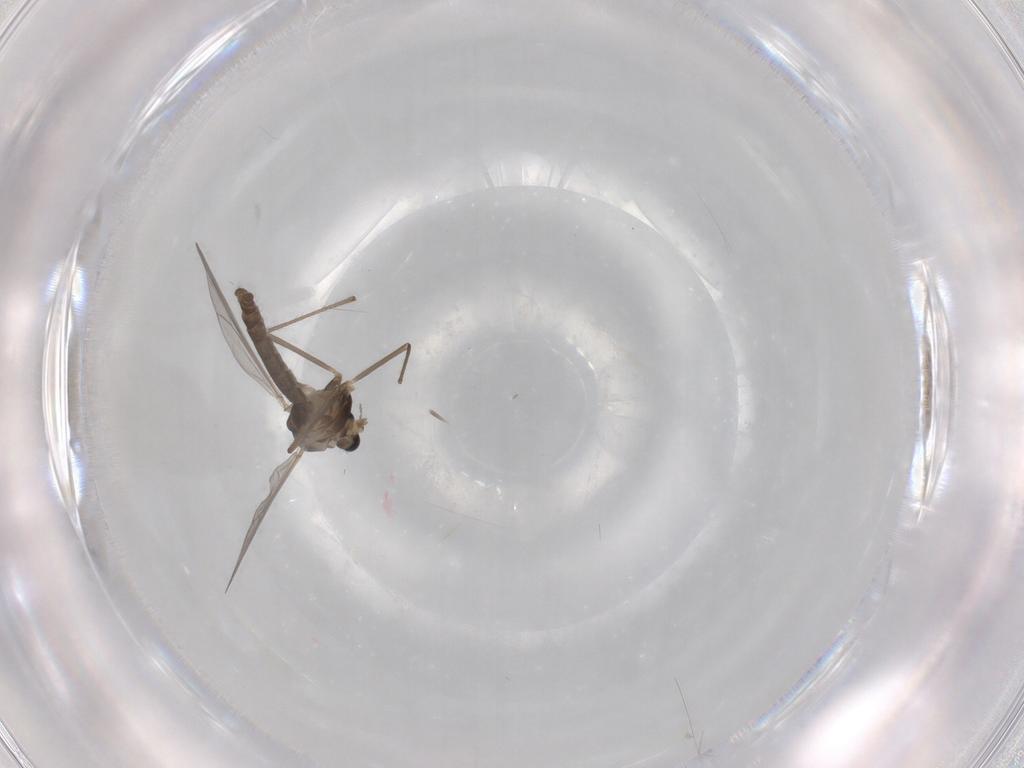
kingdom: Animalia
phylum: Arthropoda
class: Insecta
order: Diptera
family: Chironomidae
